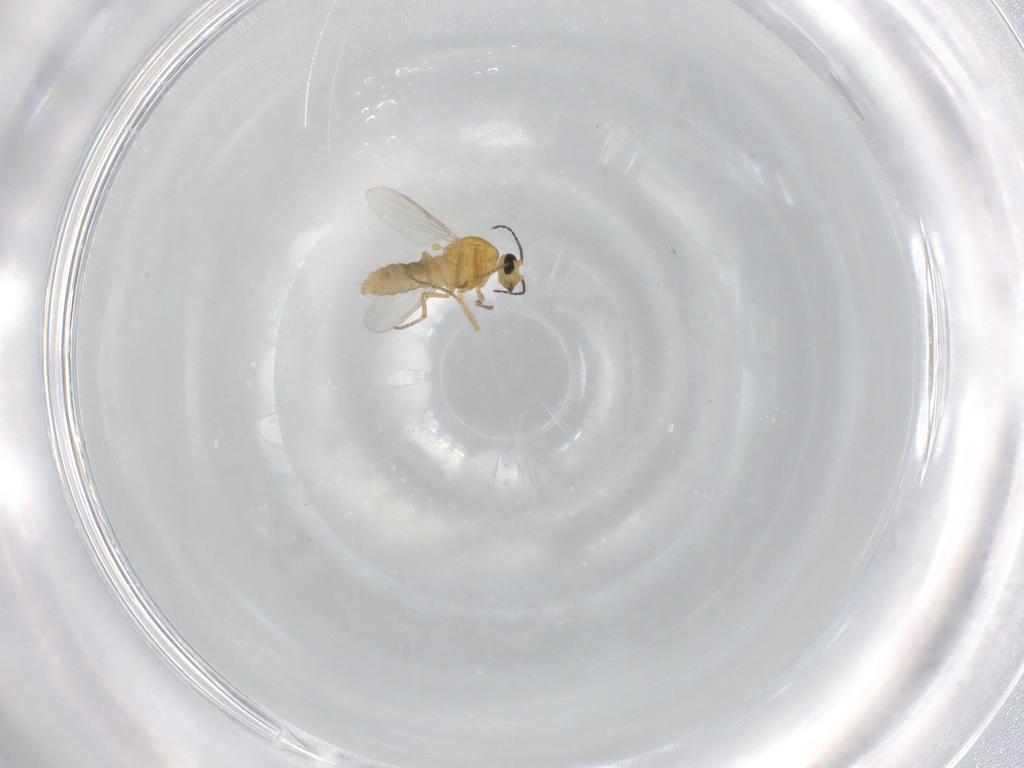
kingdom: Animalia
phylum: Arthropoda
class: Insecta
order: Diptera
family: Ceratopogonidae
